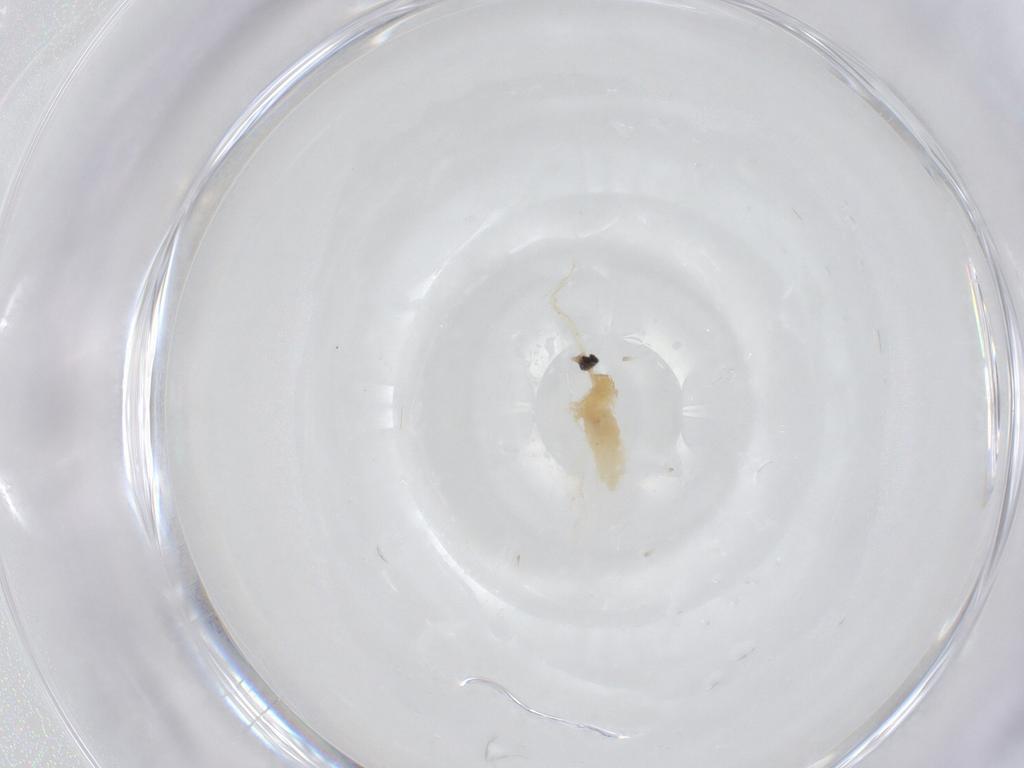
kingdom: Animalia
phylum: Arthropoda
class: Insecta
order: Diptera
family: Cecidomyiidae
